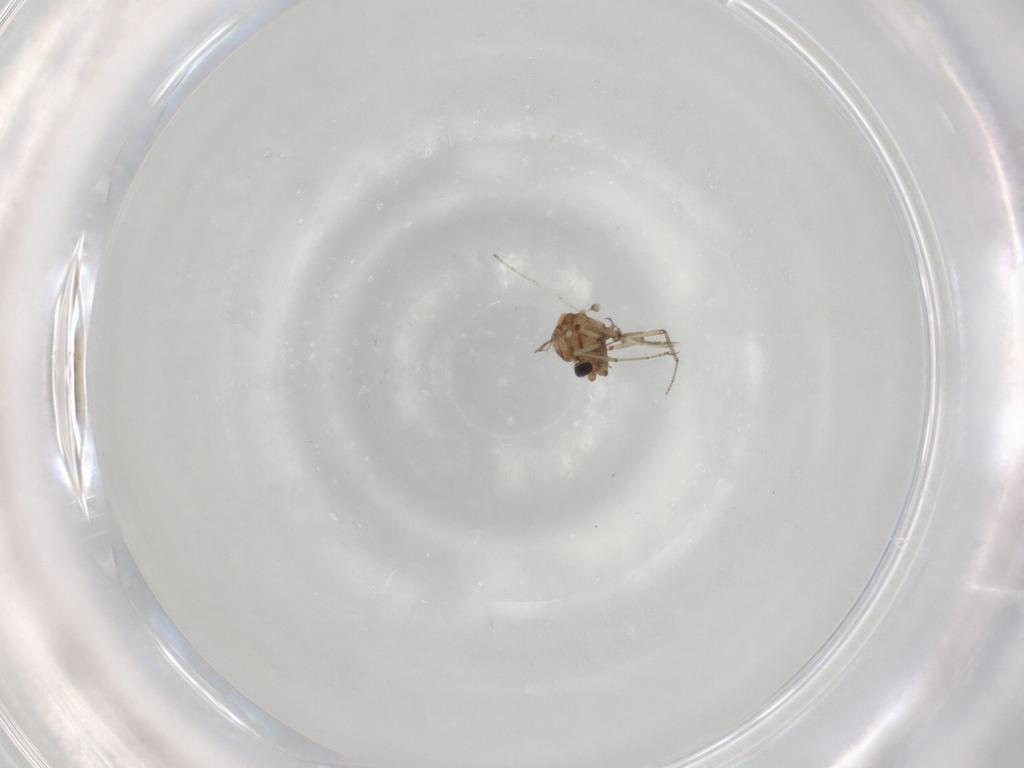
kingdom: Animalia
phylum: Arthropoda
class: Insecta
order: Diptera
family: Ceratopogonidae
